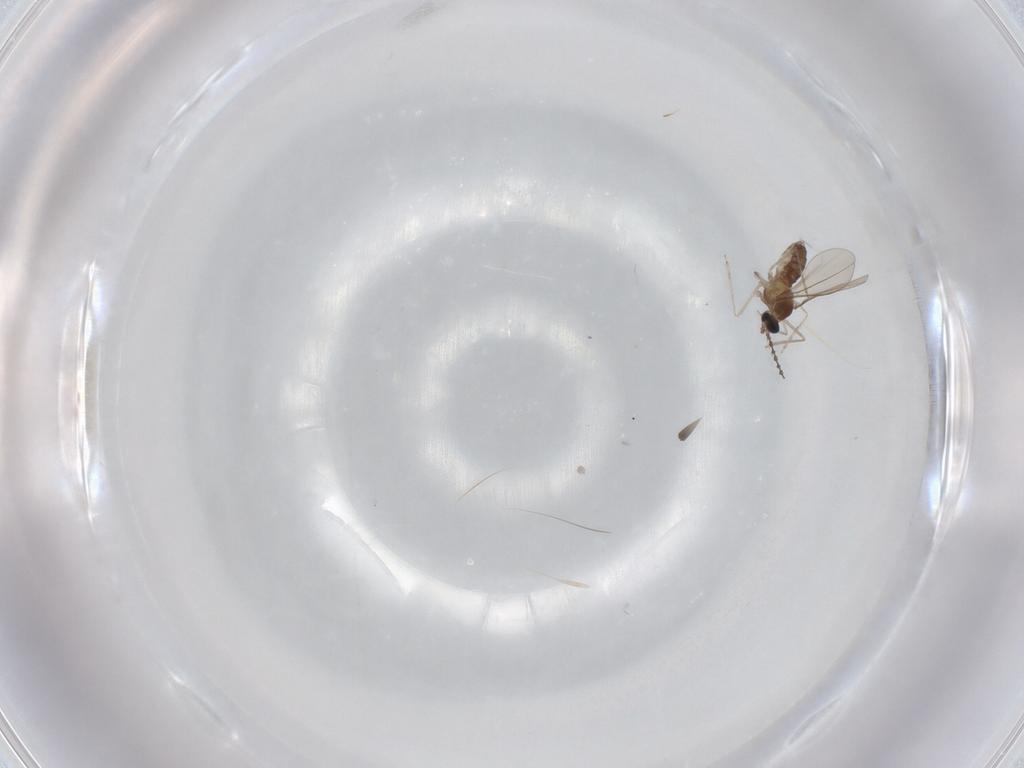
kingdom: Animalia
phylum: Arthropoda
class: Insecta
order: Diptera
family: Cecidomyiidae
